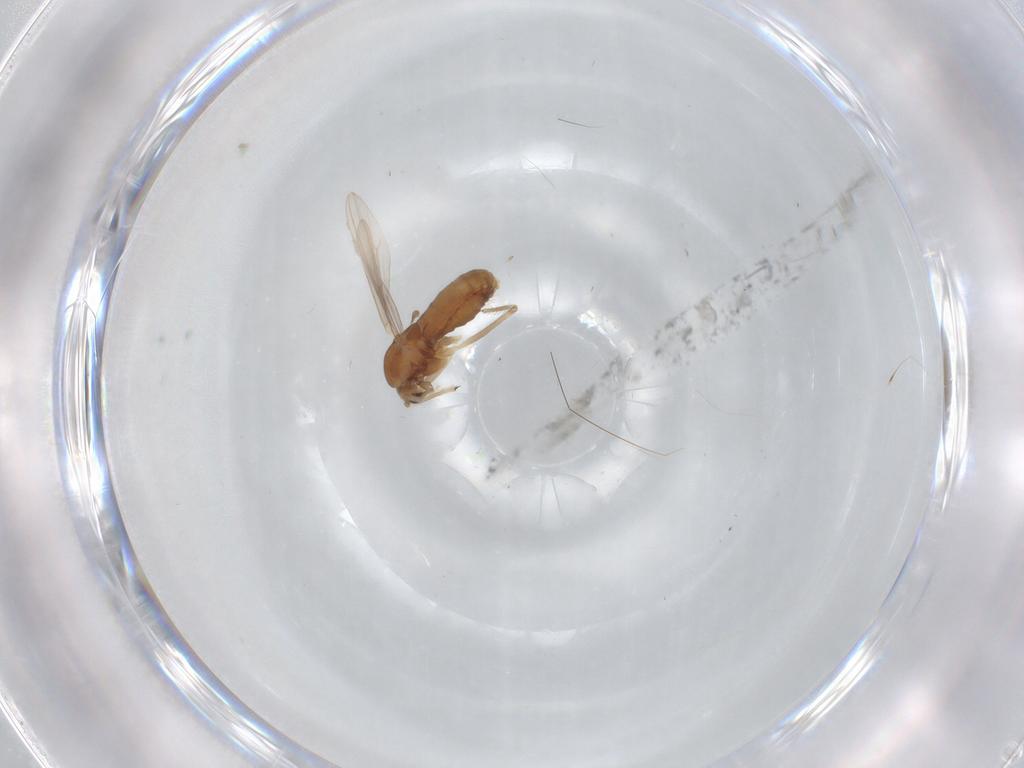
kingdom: Animalia
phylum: Arthropoda
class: Insecta
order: Diptera
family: Chironomidae
